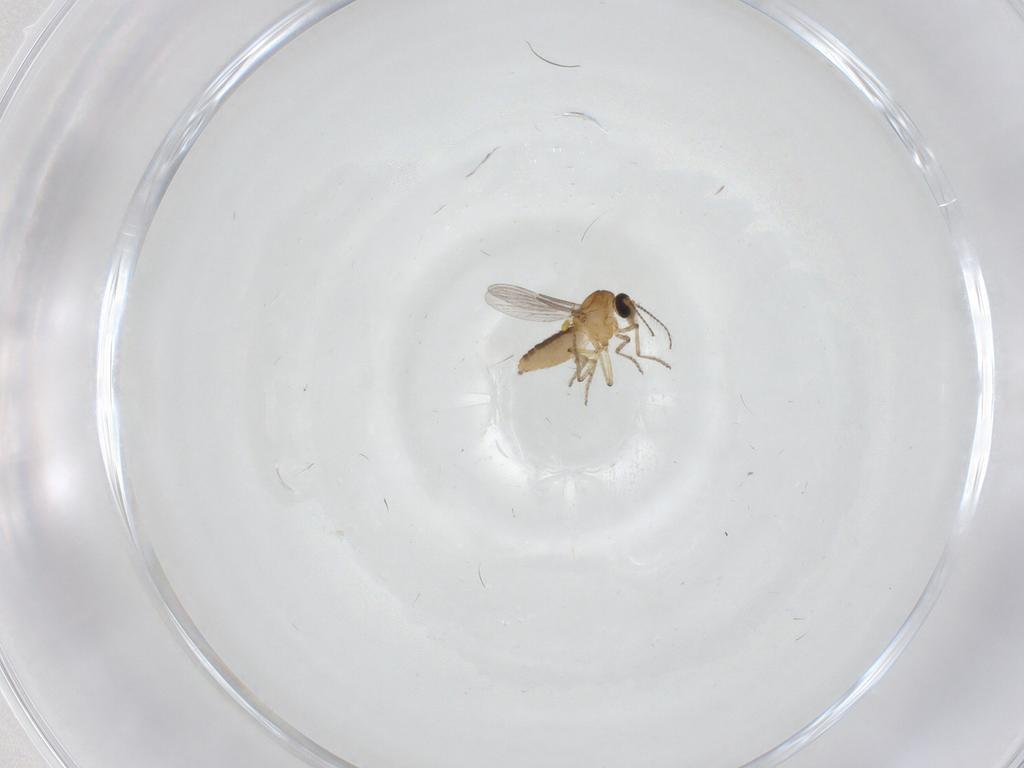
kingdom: Animalia
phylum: Arthropoda
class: Insecta
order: Diptera
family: Ceratopogonidae
